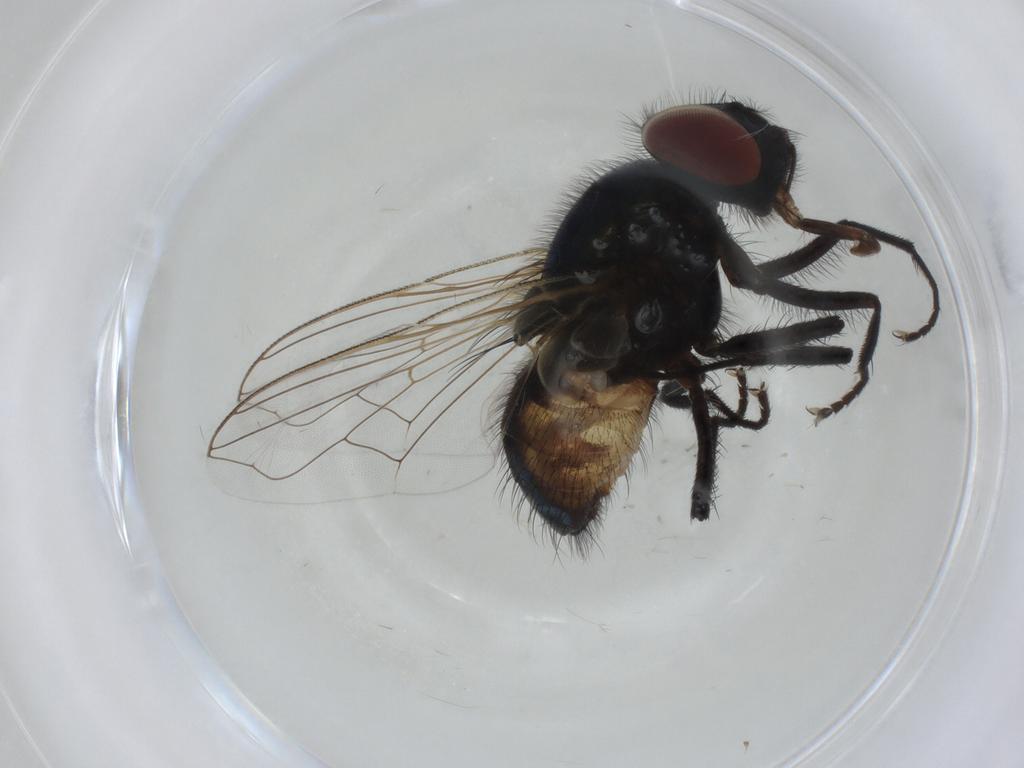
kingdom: Animalia
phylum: Arthropoda
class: Insecta
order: Diptera
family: Muscidae
